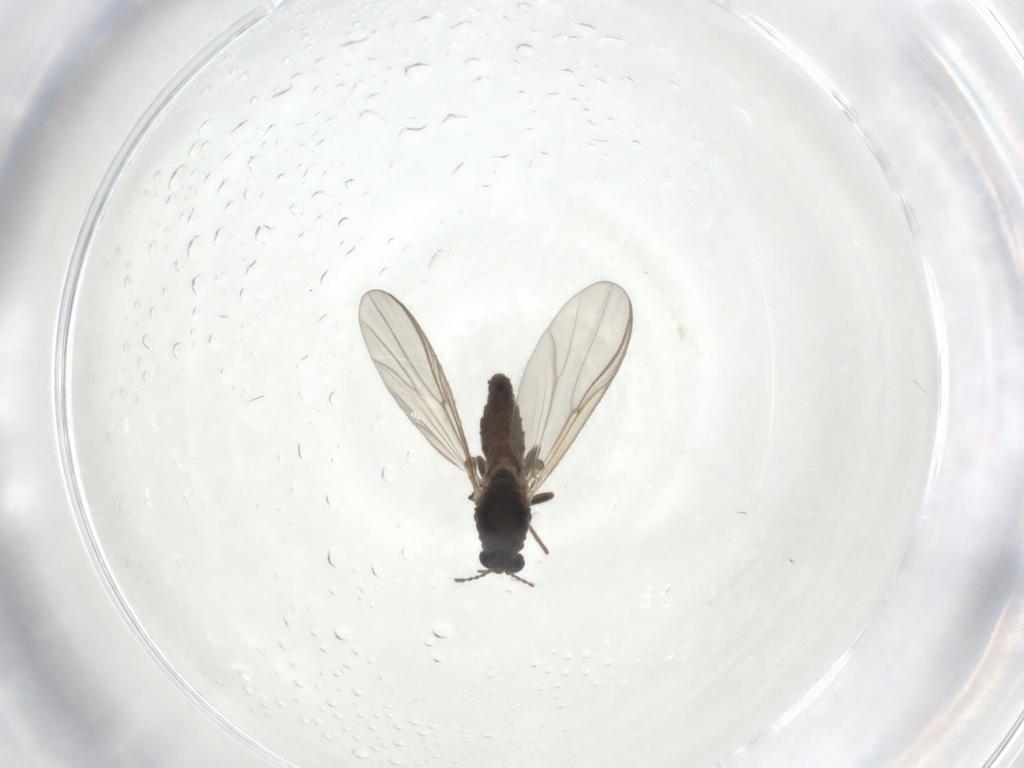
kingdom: Animalia
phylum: Arthropoda
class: Insecta
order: Diptera
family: Chironomidae
